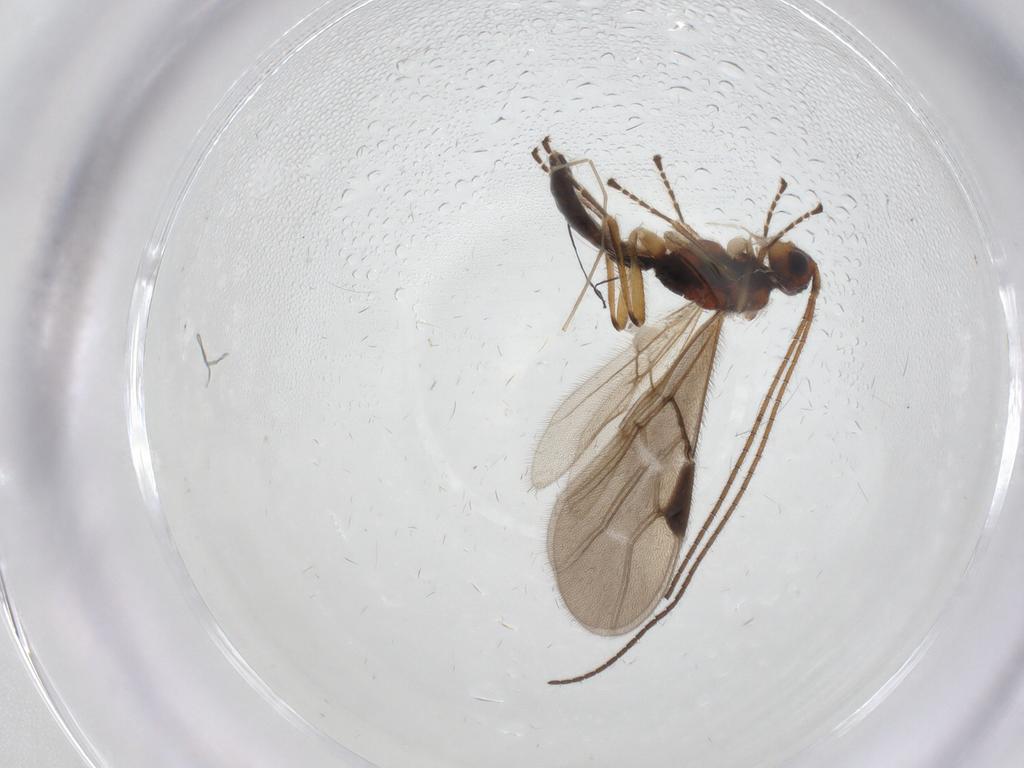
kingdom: Animalia
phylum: Arthropoda
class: Insecta
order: Hymenoptera
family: Braconidae
